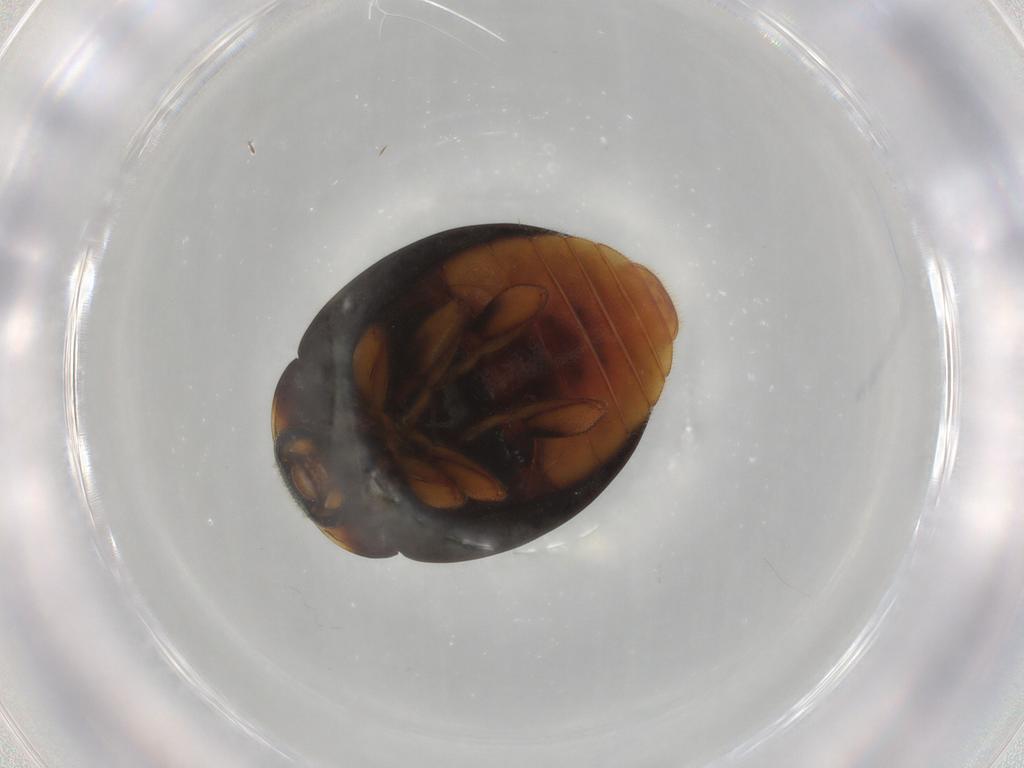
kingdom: Animalia
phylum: Arthropoda
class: Insecta
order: Coleoptera
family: Coccinellidae
